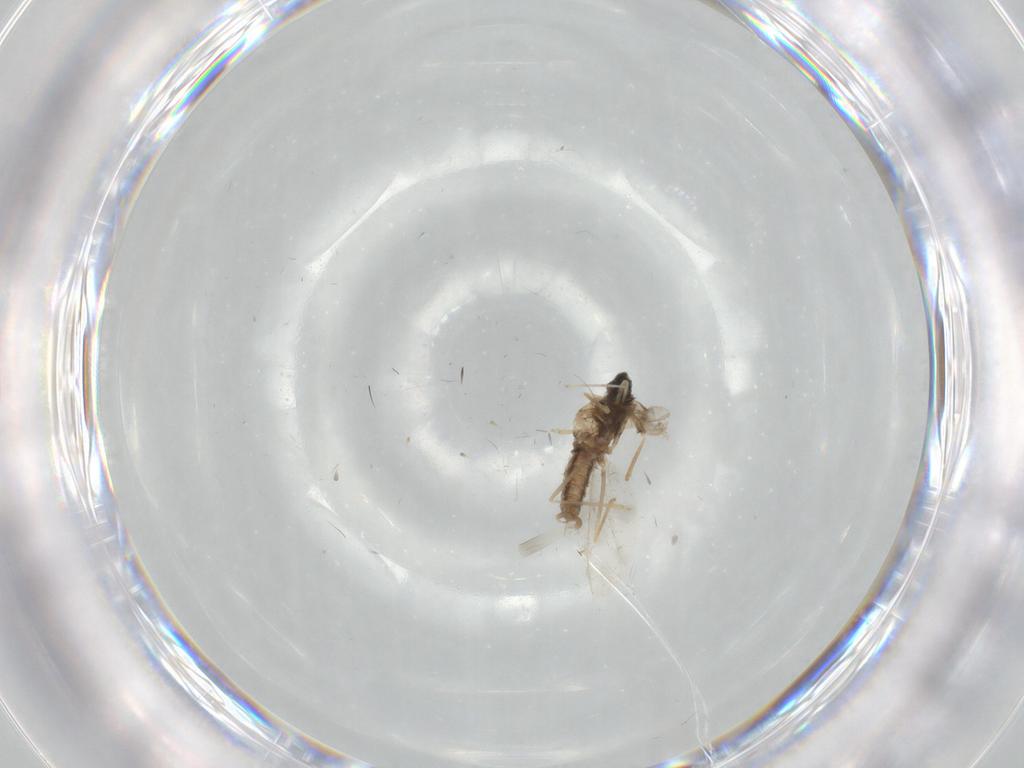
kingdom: Animalia
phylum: Arthropoda
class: Insecta
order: Diptera
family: Cecidomyiidae
